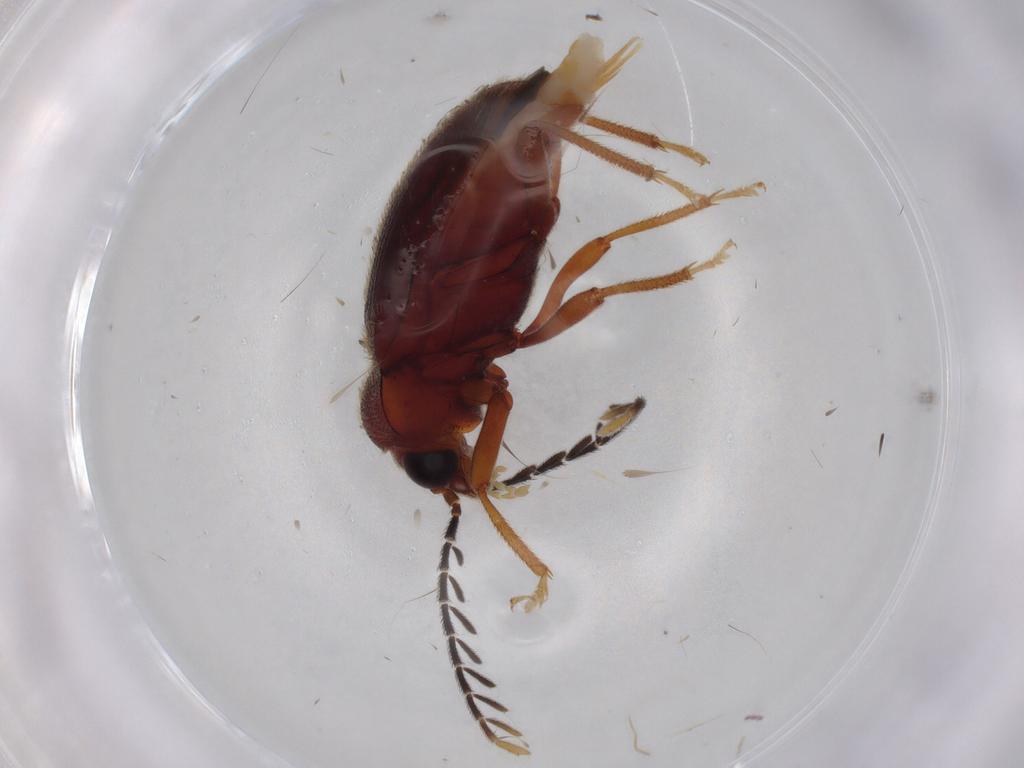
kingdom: Animalia
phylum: Arthropoda
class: Insecta
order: Coleoptera
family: Ptilodactylidae
